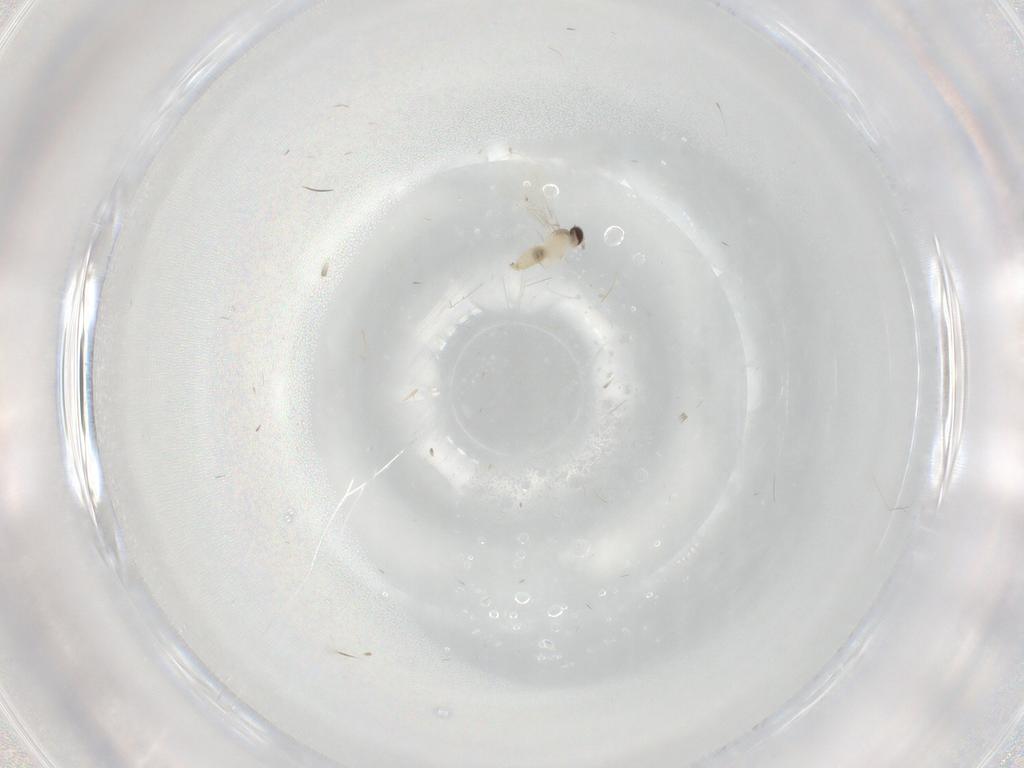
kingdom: Animalia
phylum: Arthropoda
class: Insecta
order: Diptera
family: Cecidomyiidae
